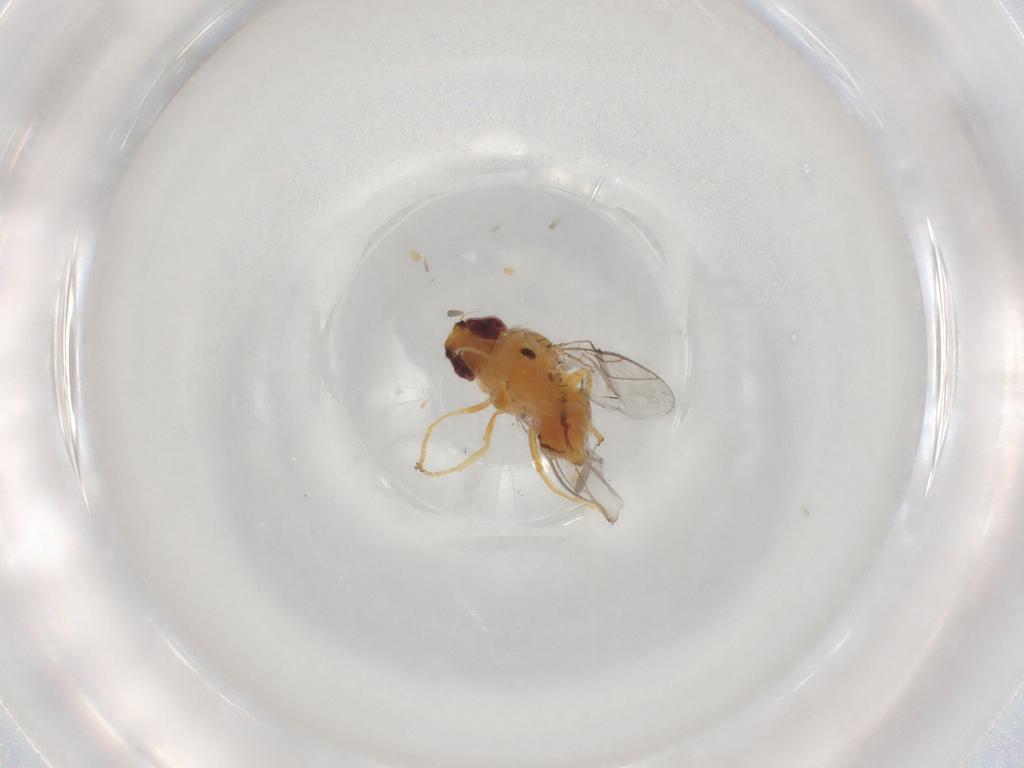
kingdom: Animalia
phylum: Arthropoda
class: Insecta
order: Diptera
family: Chloropidae
